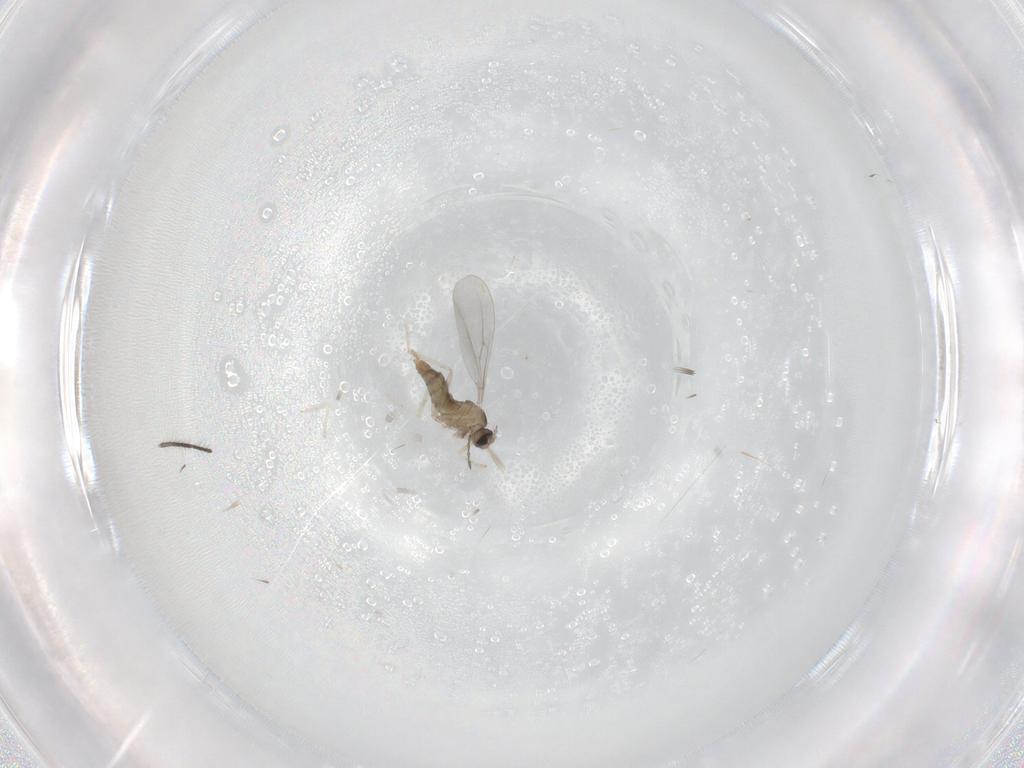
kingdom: Animalia
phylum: Arthropoda
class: Insecta
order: Diptera
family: Cecidomyiidae
